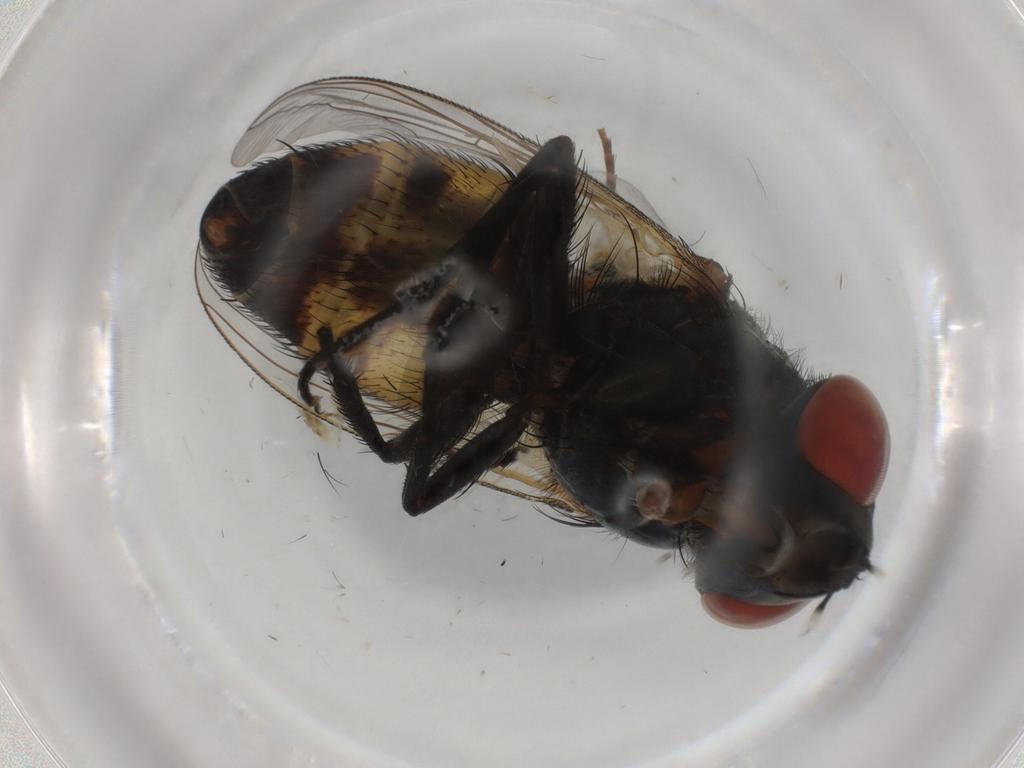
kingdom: Animalia
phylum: Arthropoda
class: Insecta
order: Diptera
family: Sarcophagidae
